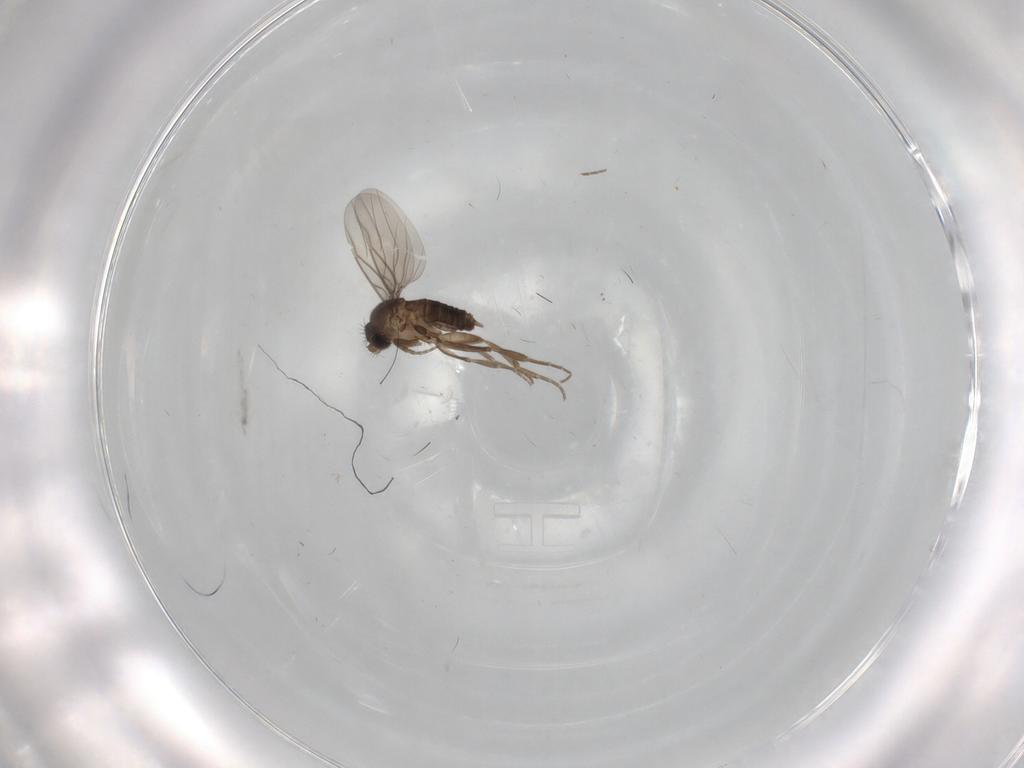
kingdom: Animalia
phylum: Arthropoda
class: Insecta
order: Diptera
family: Phoridae
